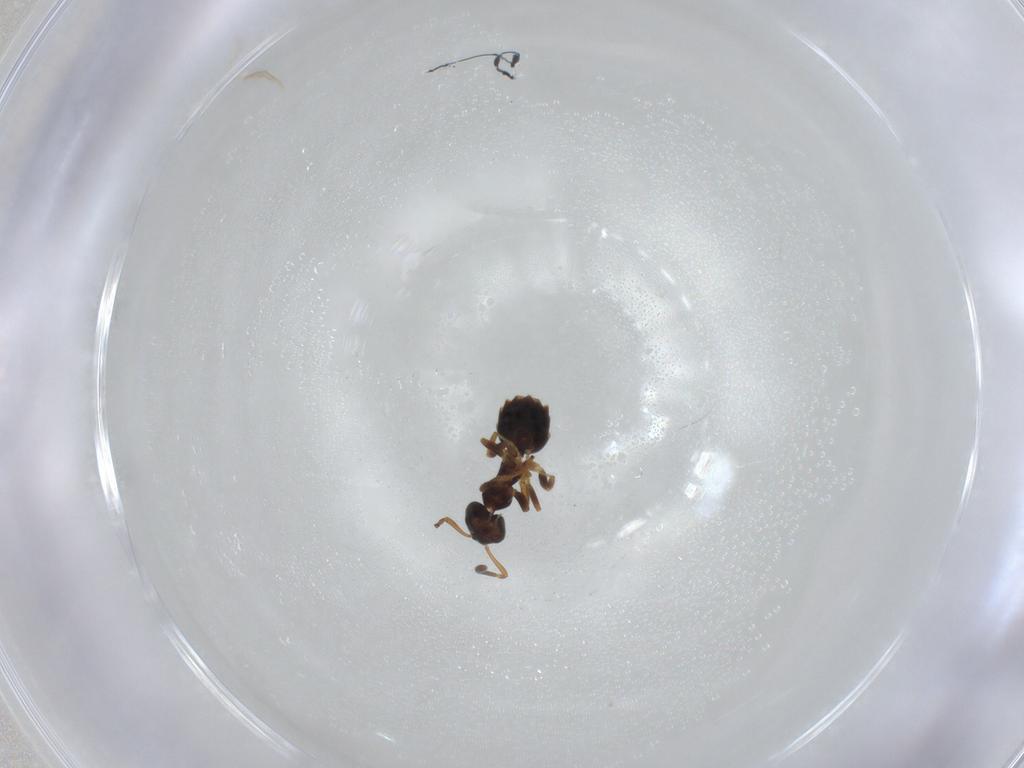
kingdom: Animalia
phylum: Arthropoda
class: Insecta
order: Hymenoptera
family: Formicidae
